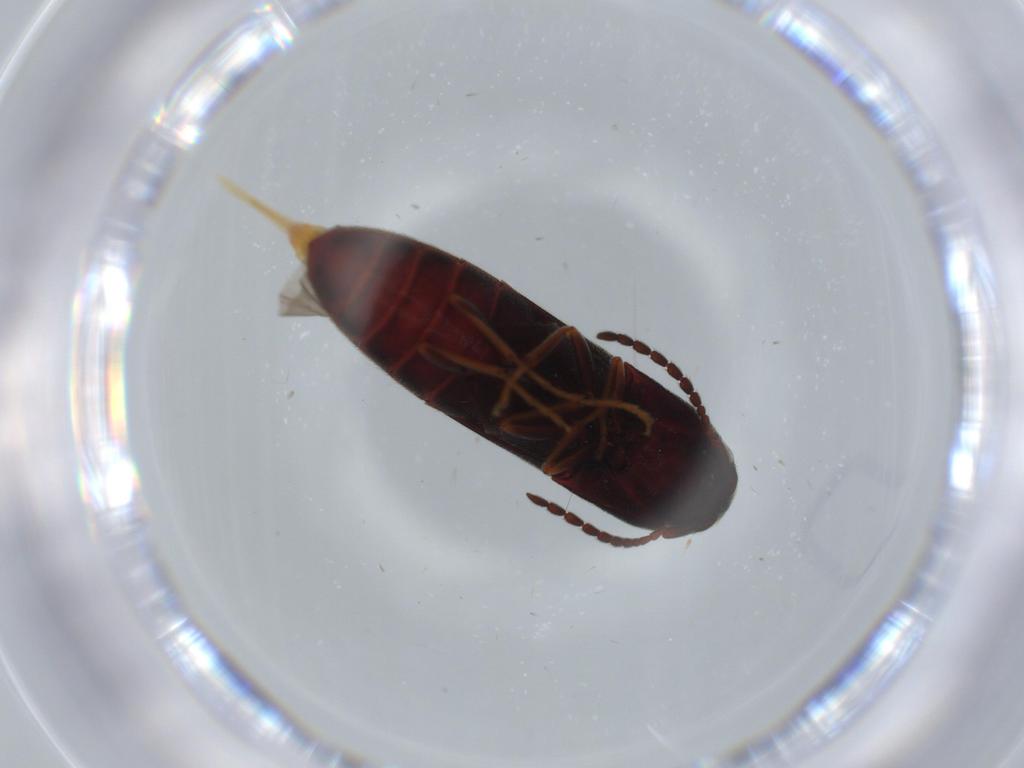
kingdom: Animalia
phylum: Arthropoda
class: Insecta
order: Coleoptera
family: Eucnemidae
